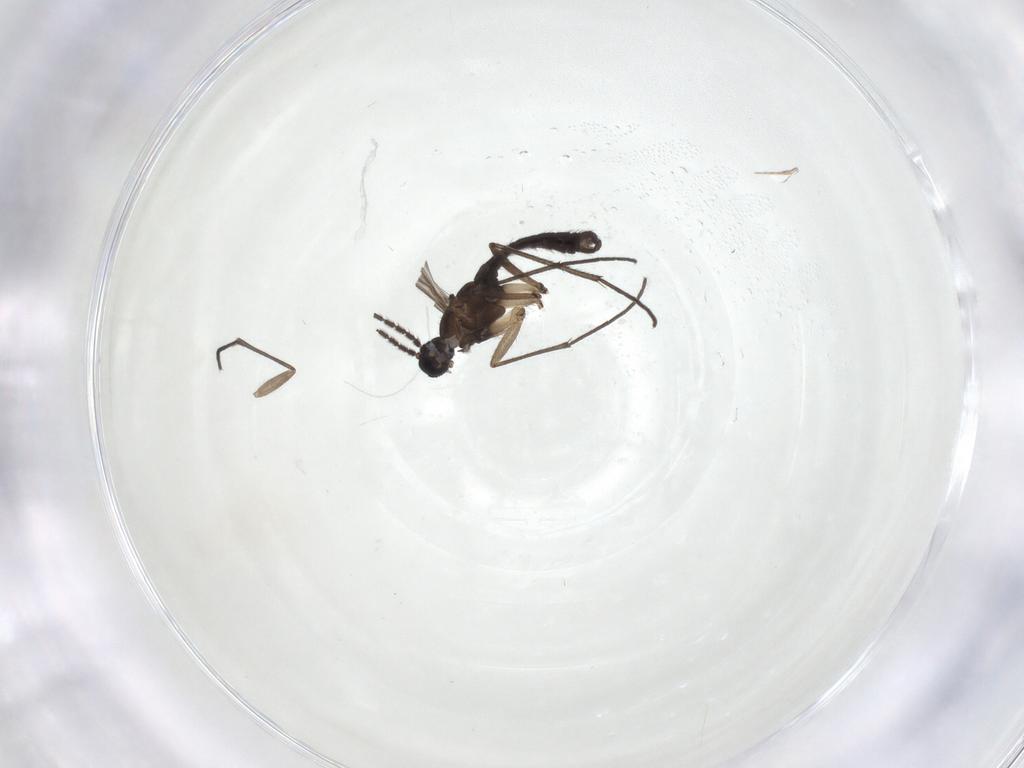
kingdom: Animalia
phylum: Arthropoda
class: Insecta
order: Diptera
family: Sciaridae
